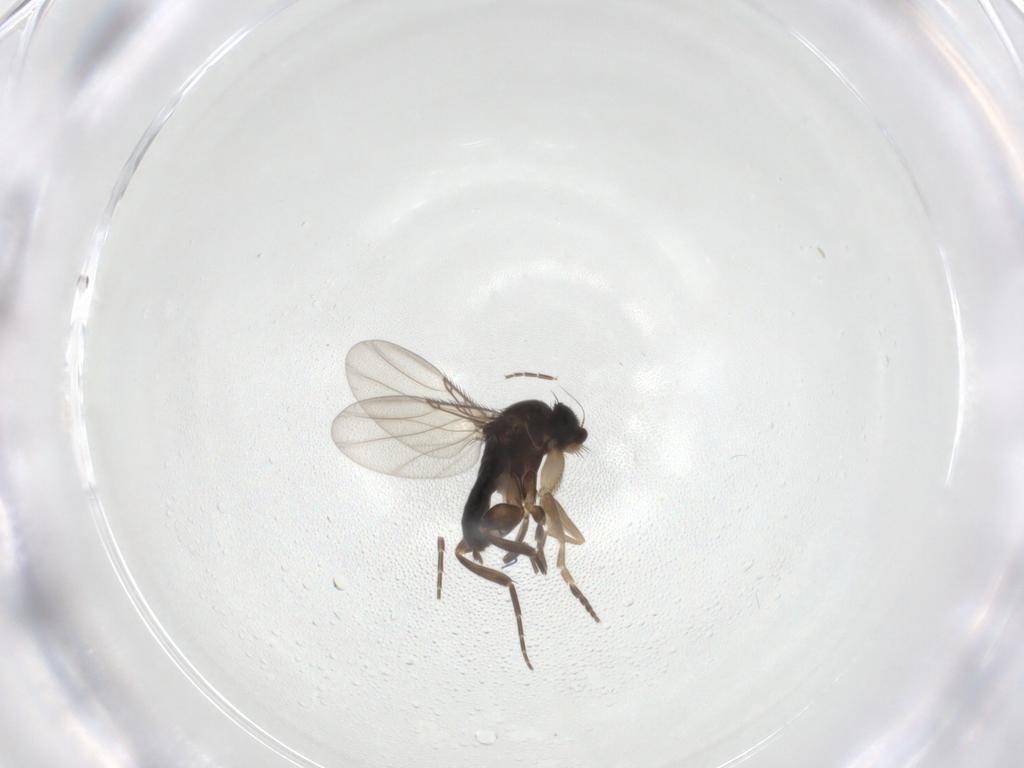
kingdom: Animalia
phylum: Arthropoda
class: Insecta
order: Diptera
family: Phoridae
